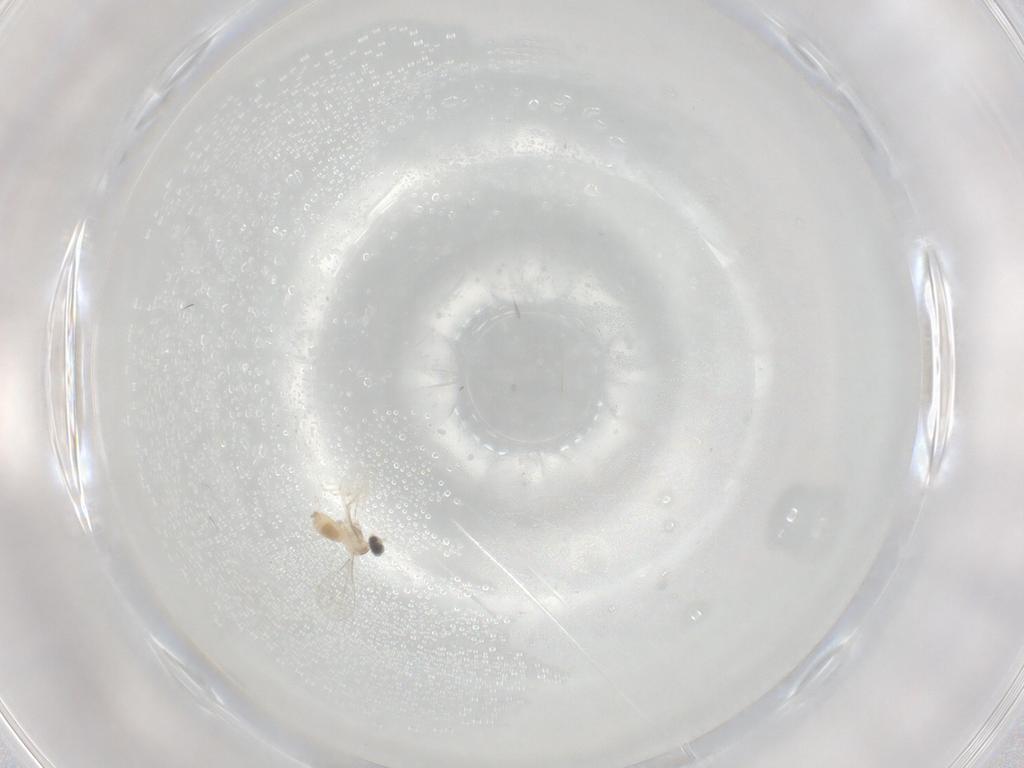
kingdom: Animalia
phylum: Arthropoda
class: Insecta
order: Diptera
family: Cecidomyiidae
